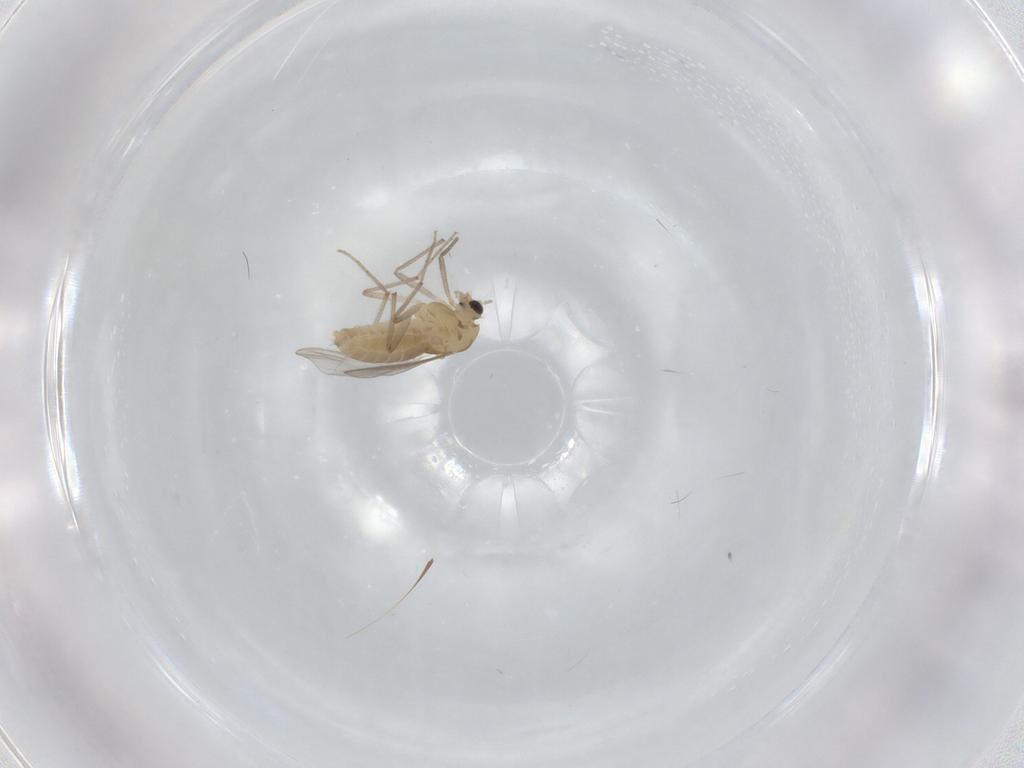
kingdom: Animalia
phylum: Arthropoda
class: Insecta
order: Diptera
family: Chironomidae
